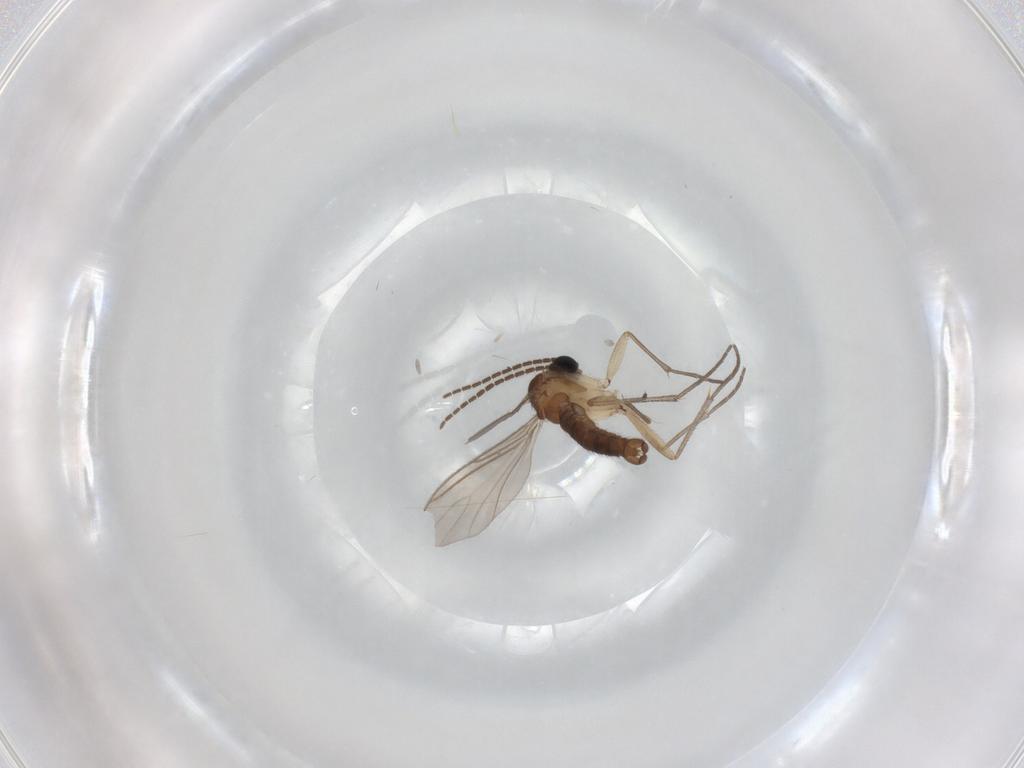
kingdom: Animalia
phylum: Arthropoda
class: Insecta
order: Diptera
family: Sciaridae
